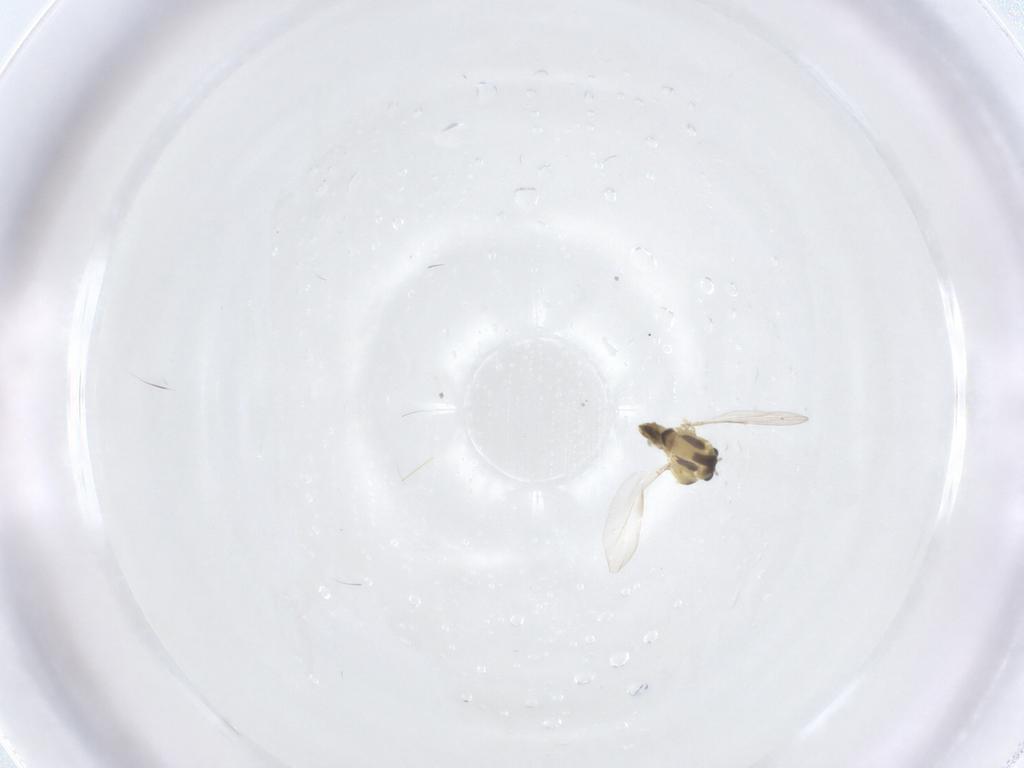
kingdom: Animalia
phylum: Arthropoda
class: Insecta
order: Diptera
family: Chironomidae
